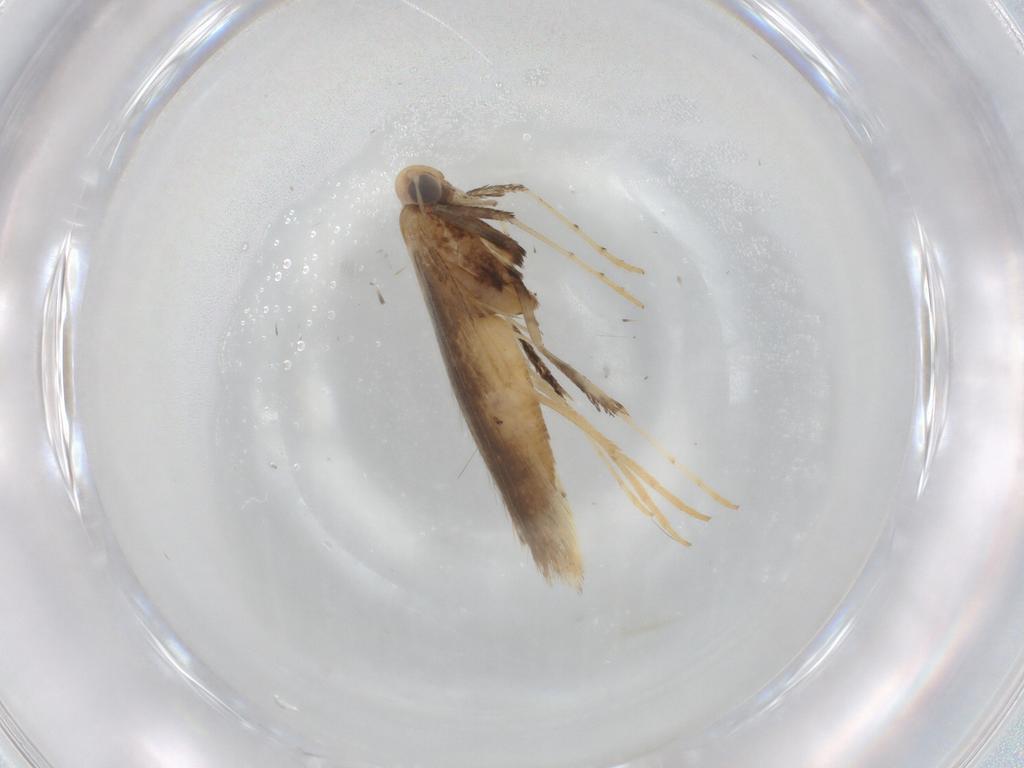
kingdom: Animalia
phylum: Arthropoda
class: Insecta
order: Lepidoptera
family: Gracillariidae
